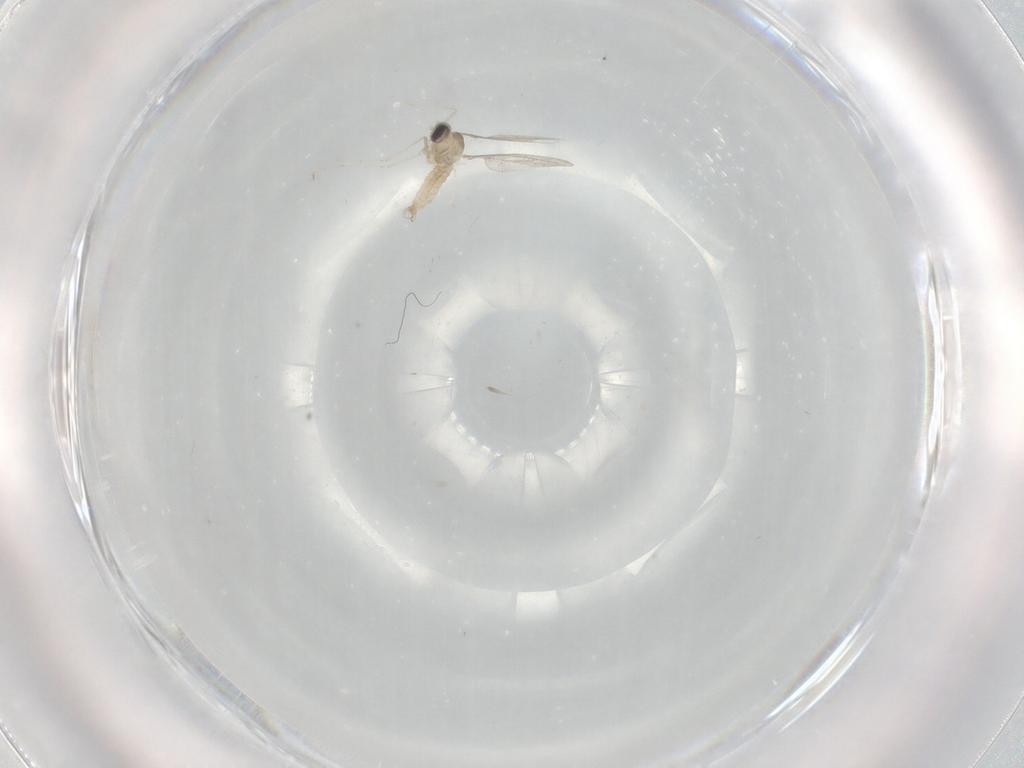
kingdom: Animalia
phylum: Arthropoda
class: Insecta
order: Diptera
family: Cecidomyiidae
